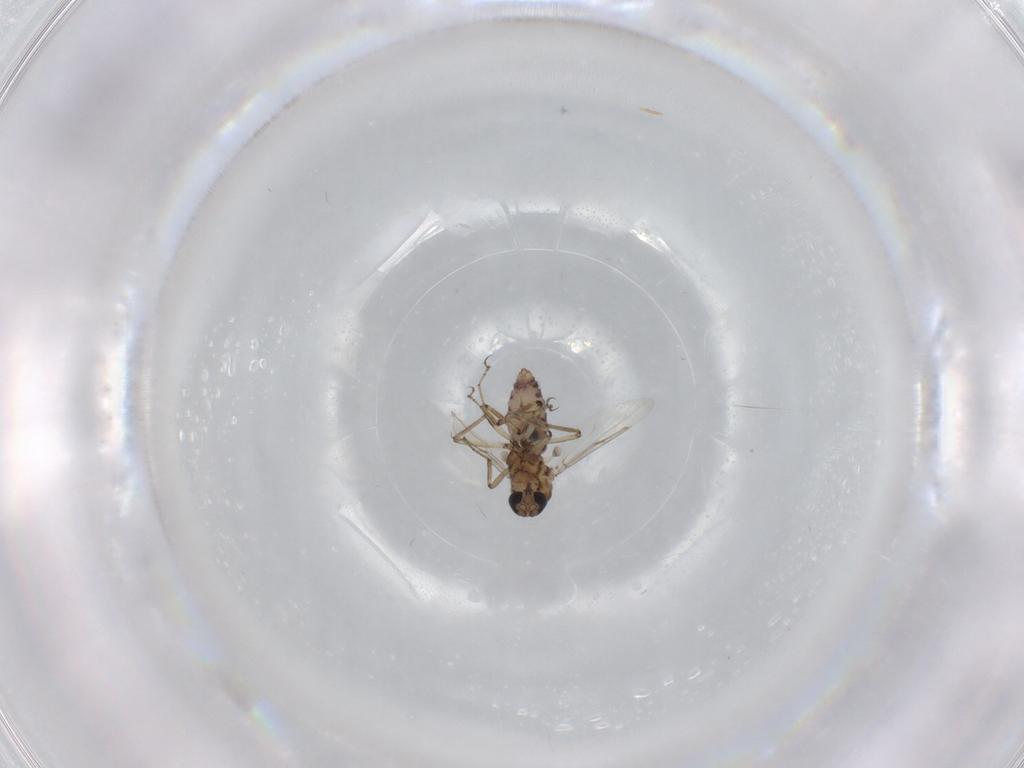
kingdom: Animalia
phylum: Arthropoda
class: Insecta
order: Diptera
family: Ceratopogonidae
